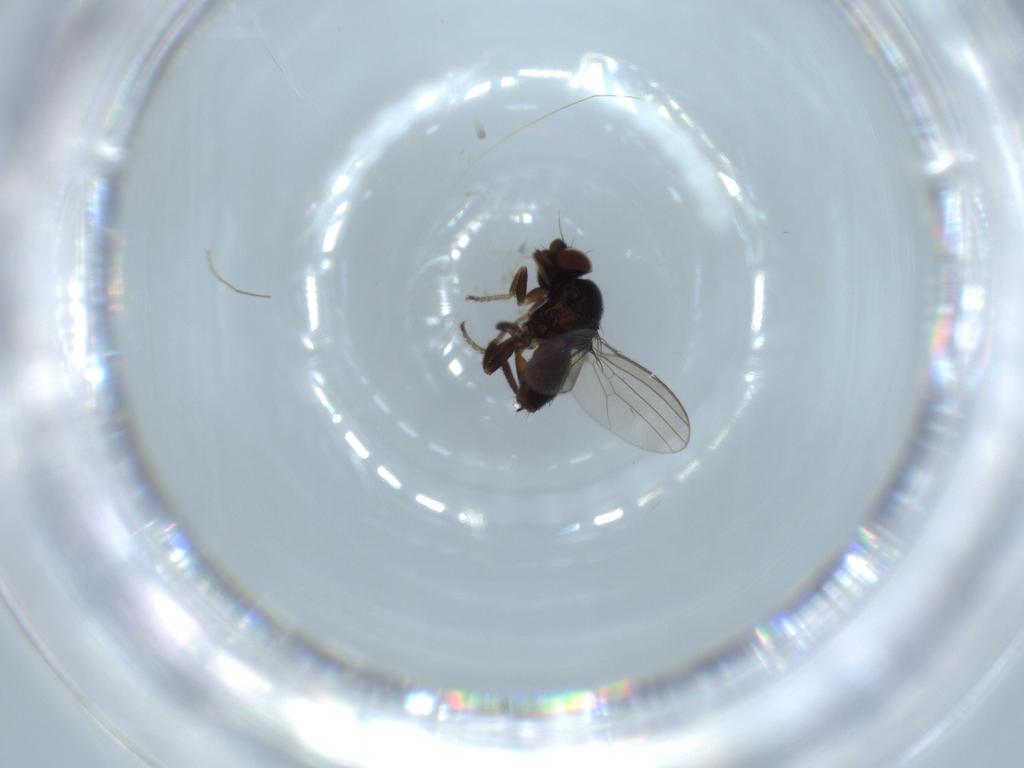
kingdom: Animalia
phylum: Arthropoda
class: Insecta
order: Diptera
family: Milichiidae
